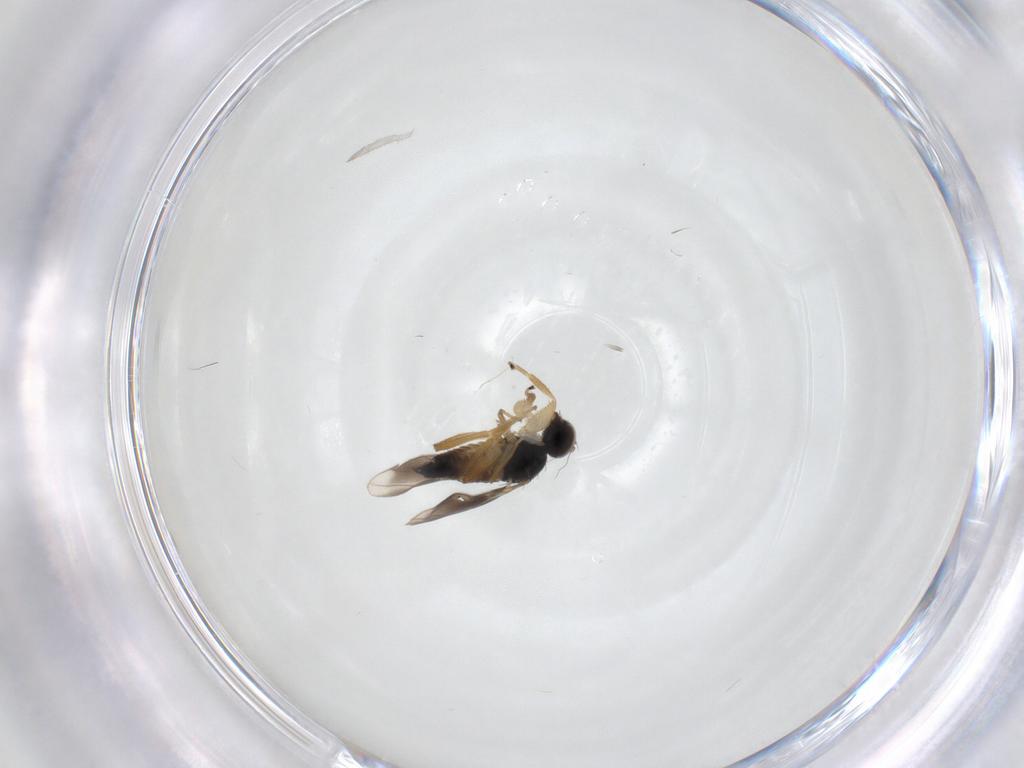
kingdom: Animalia
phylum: Arthropoda
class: Insecta
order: Diptera
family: Hybotidae
